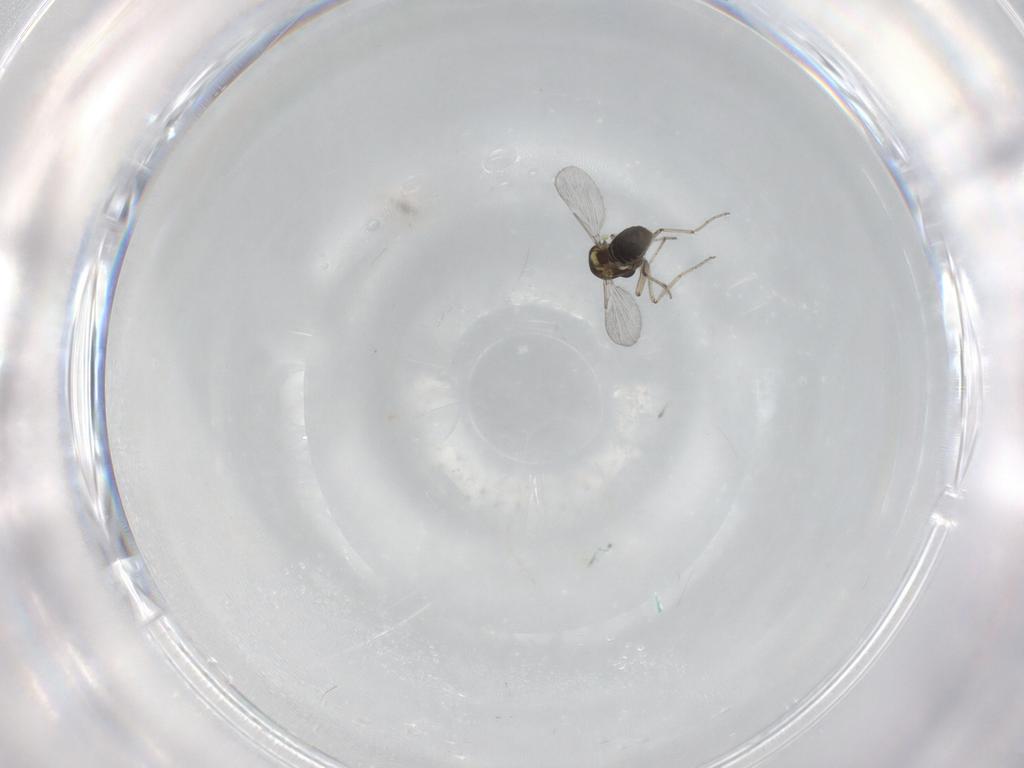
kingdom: Animalia
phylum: Arthropoda
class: Insecta
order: Diptera
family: Ceratopogonidae
